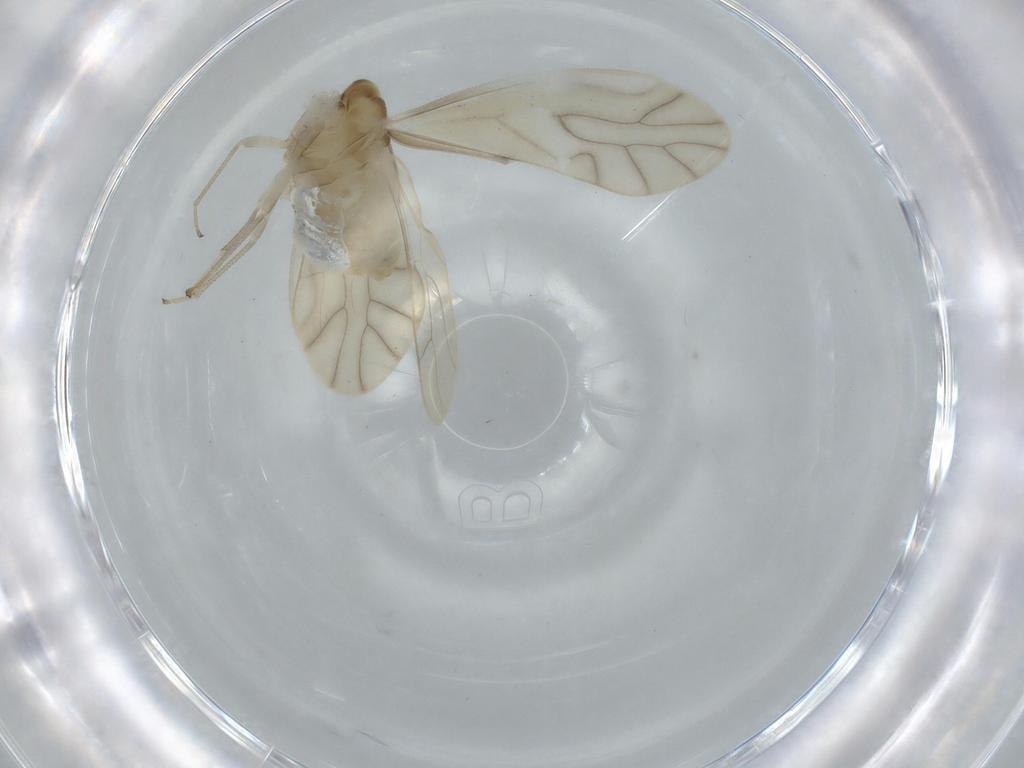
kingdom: Animalia
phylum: Arthropoda
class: Insecta
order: Psocodea
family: Caeciliusidae
